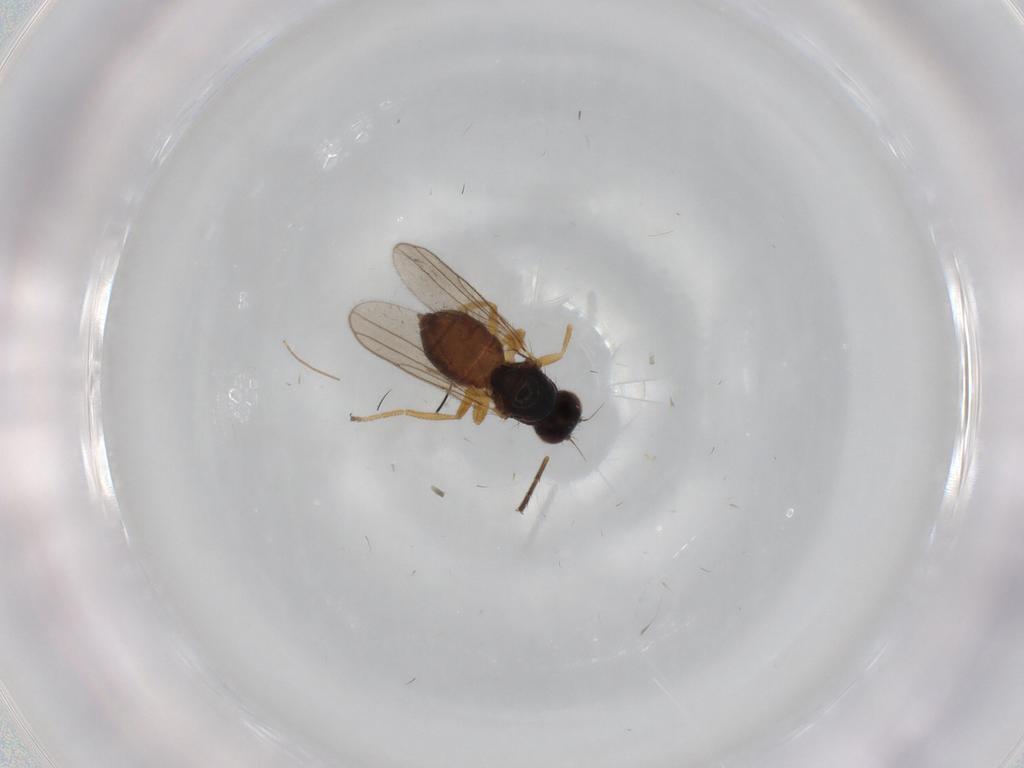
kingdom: Animalia
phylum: Arthropoda
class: Insecta
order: Diptera
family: Chloropidae
